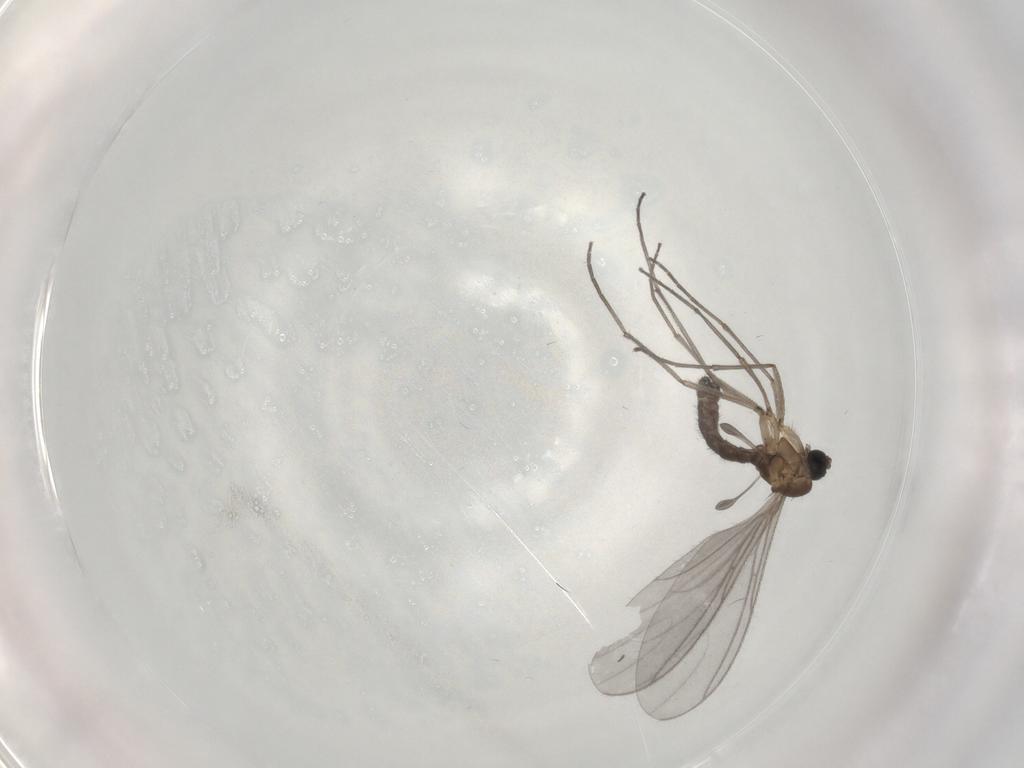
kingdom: Animalia
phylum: Arthropoda
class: Insecta
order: Diptera
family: Sciaridae
